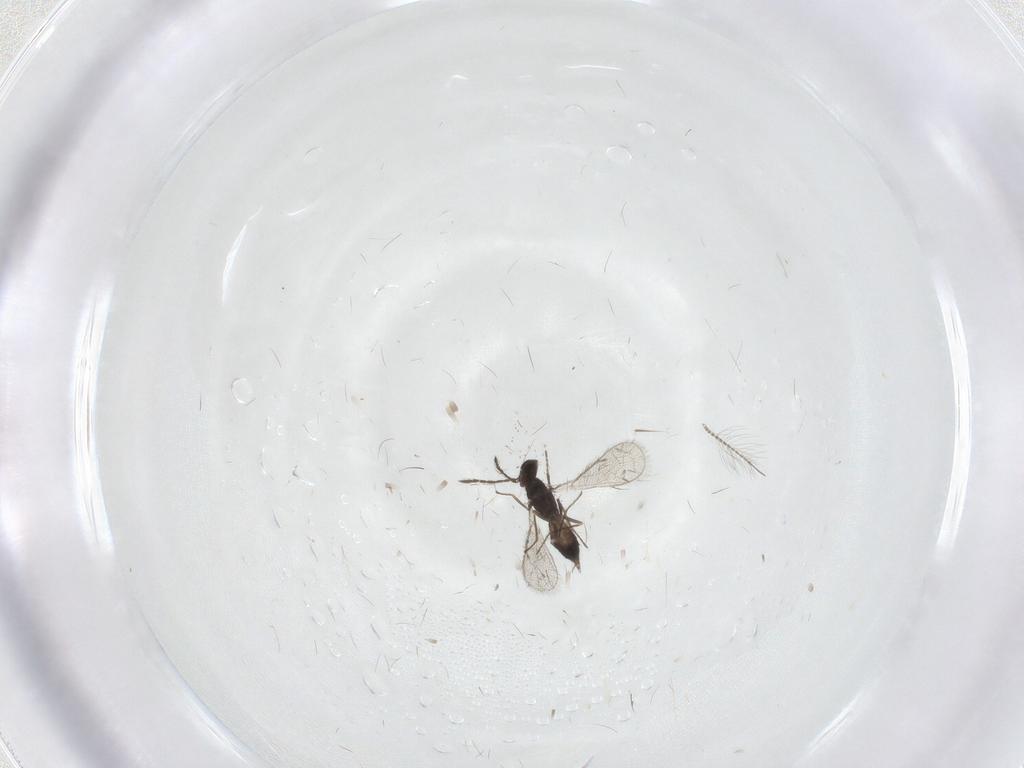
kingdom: Animalia
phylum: Arthropoda
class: Insecta
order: Hymenoptera
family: Eulophidae
